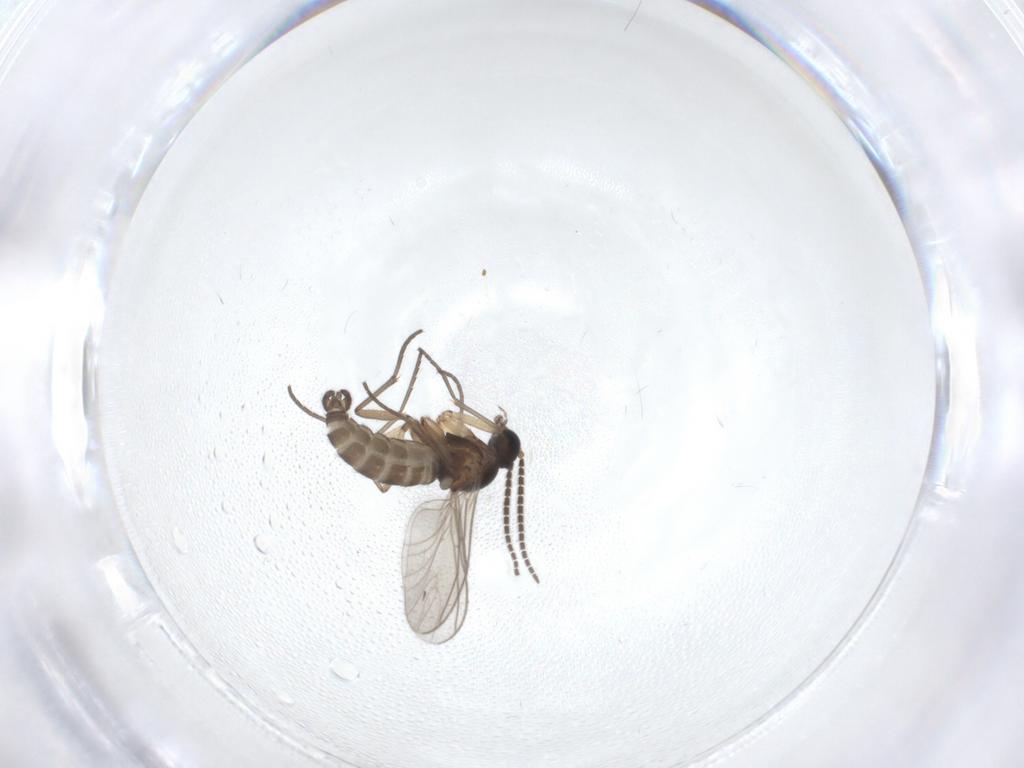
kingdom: Animalia
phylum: Arthropoda
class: Insecta
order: Diptera
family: Sciaridae
